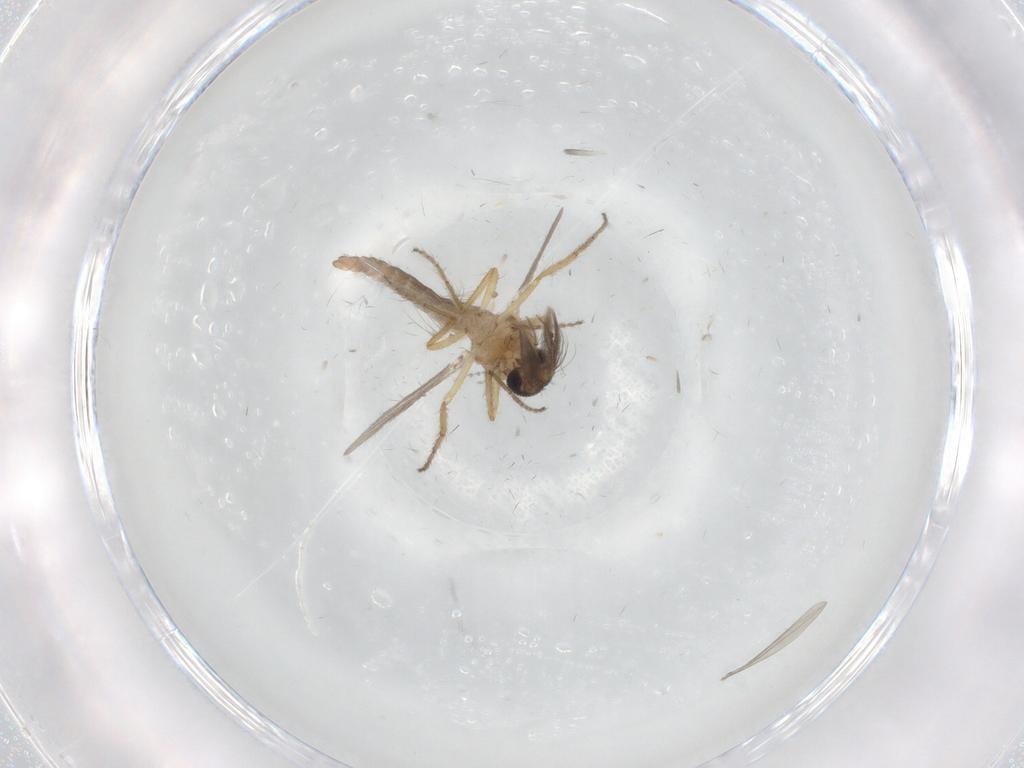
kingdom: Animalia
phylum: Arthropoda
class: Insecta
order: Diptera
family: Ceratopogonidae
